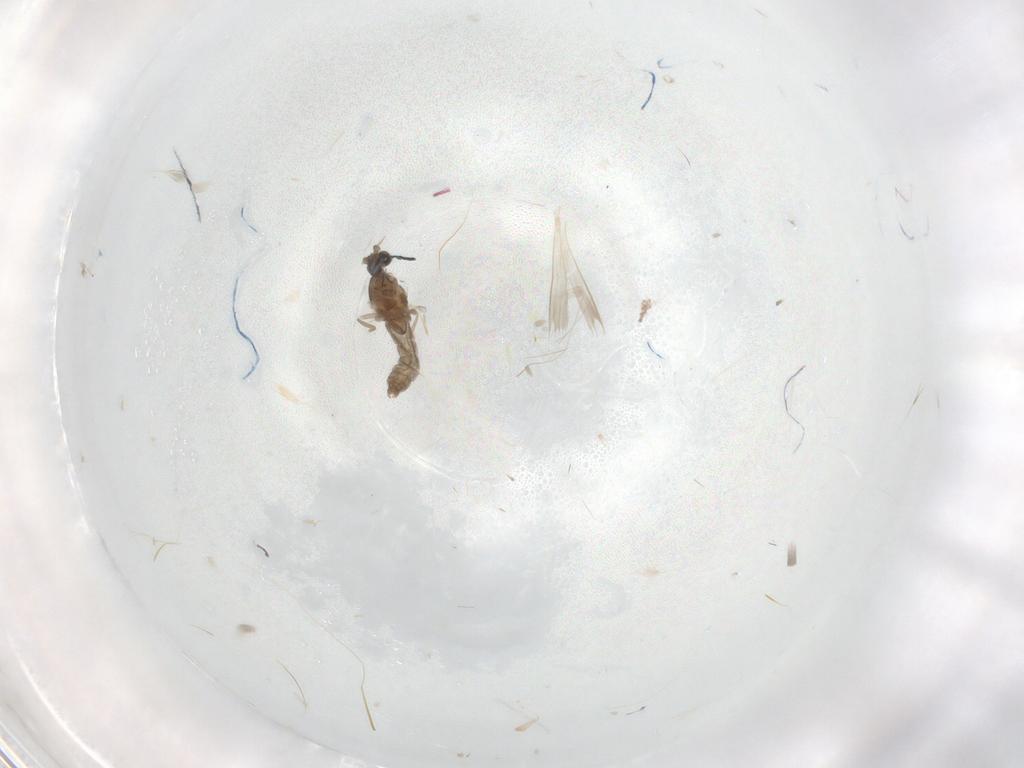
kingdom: Animalia
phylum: Arthropoda
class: Insecta
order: Diptera
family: Cecidomyiidae
